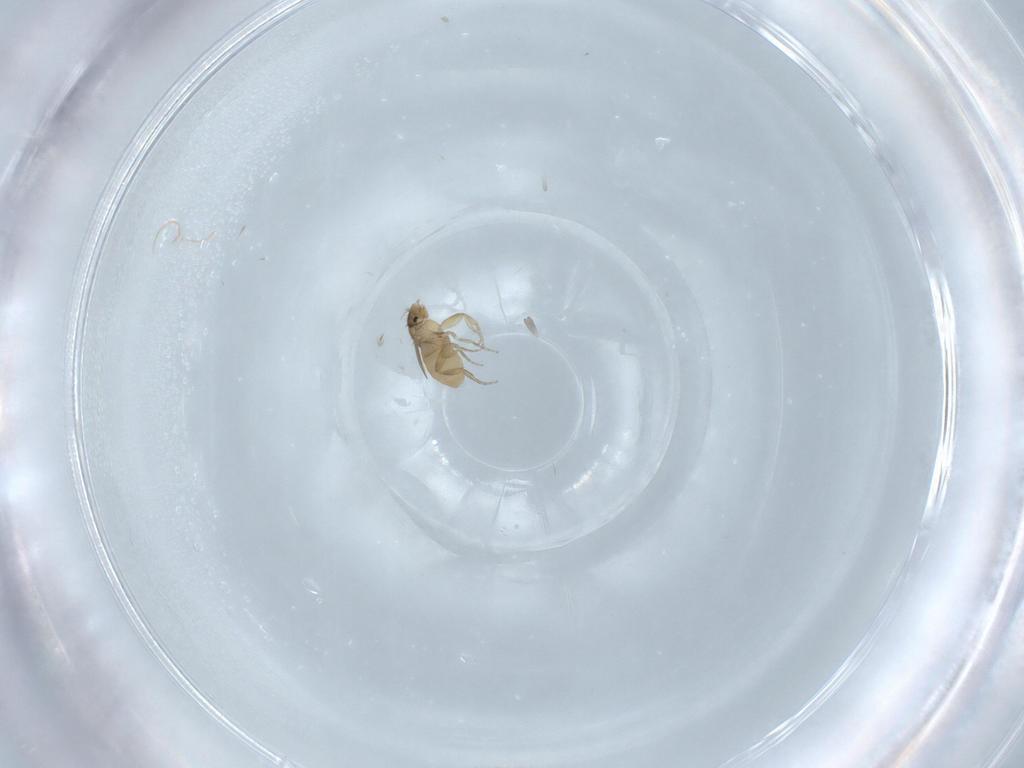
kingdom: Animalia
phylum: Arthropoda
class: Insecta
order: Diptera
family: Phoridae
